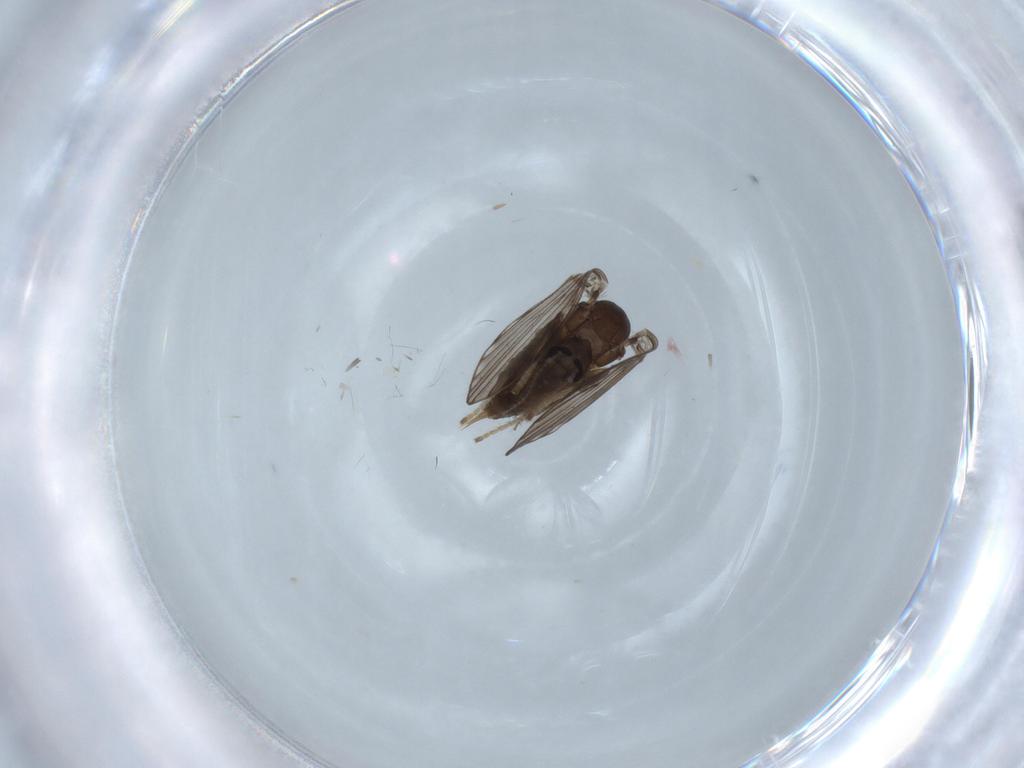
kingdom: Animalia
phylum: Arthropoda
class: Insecta
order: Diptera
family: Psychodidae
